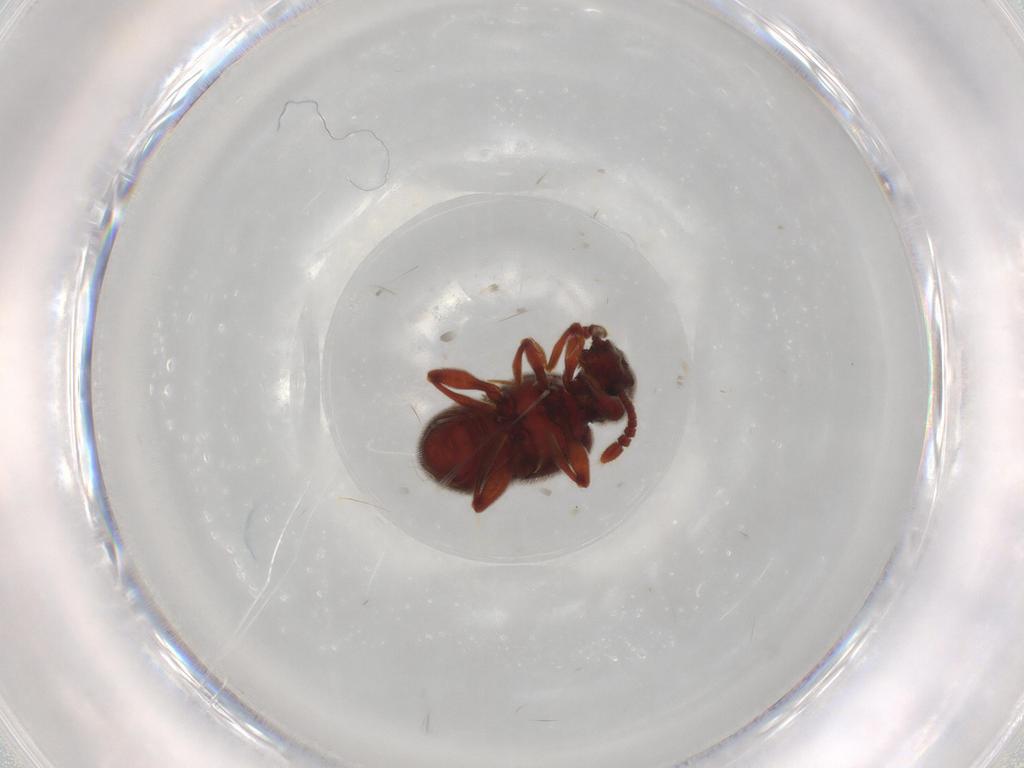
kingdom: Animalia
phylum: Arthropoda
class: Insecta
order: Coleoptera
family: Staphylinidae
